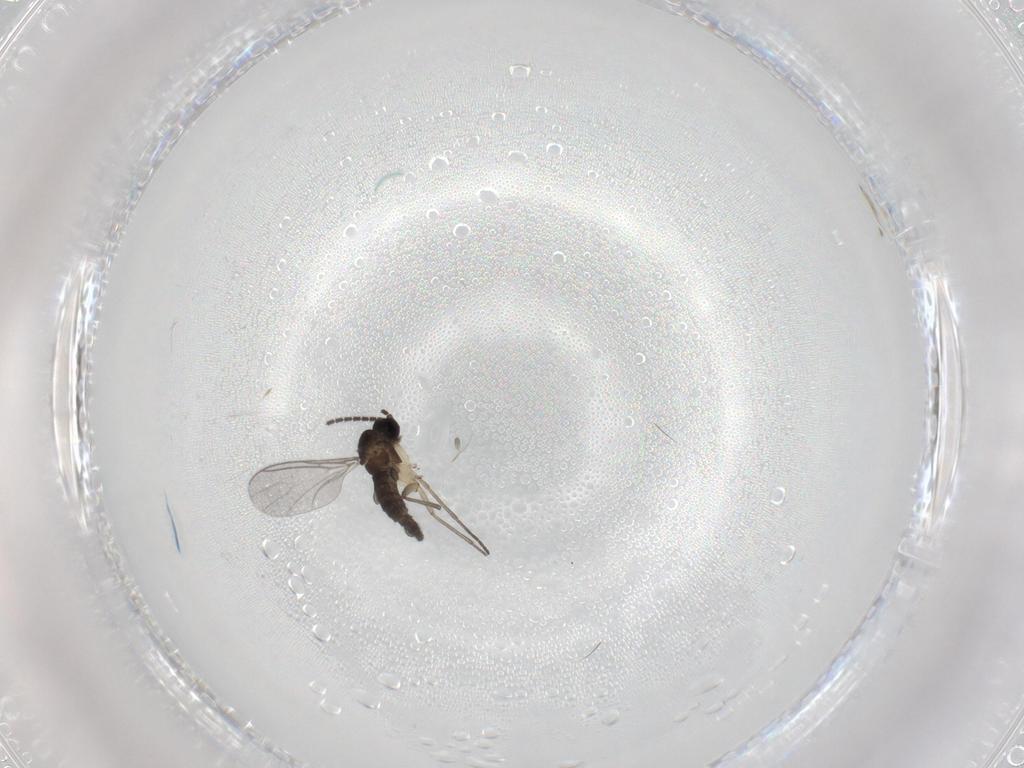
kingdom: Animalia
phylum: Arthropoda
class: Insecta
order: Diptera
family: Sciaridae
